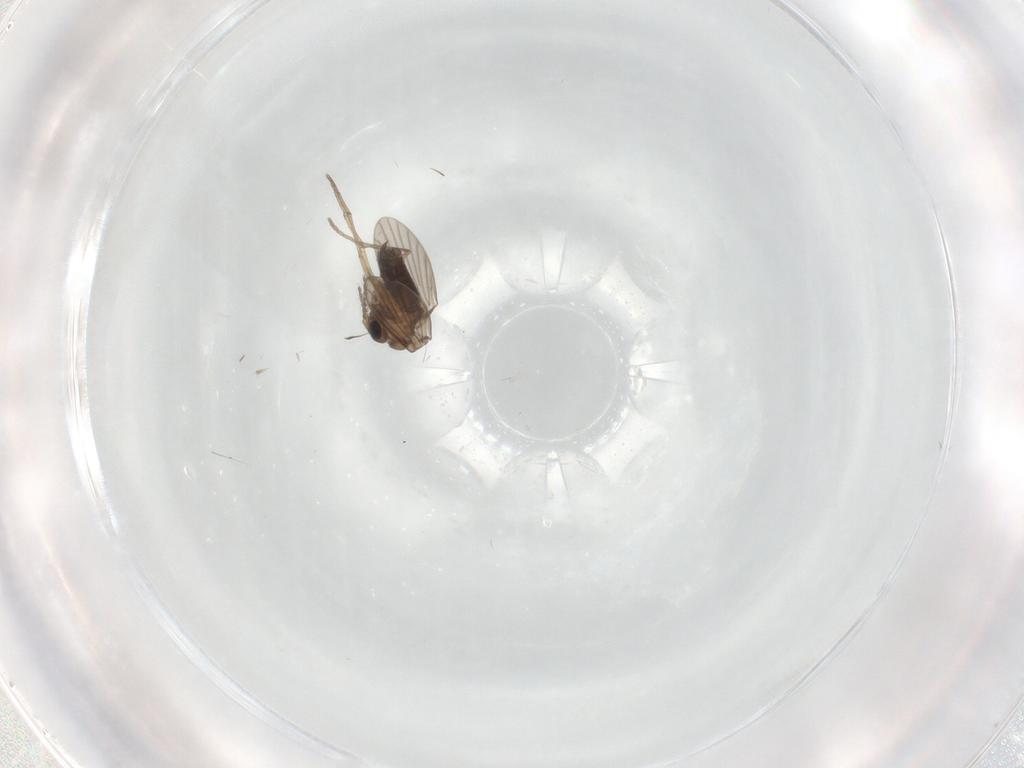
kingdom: Animalia
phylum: Arthropoda
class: Insecta
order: Diptera
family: Psychodidae
